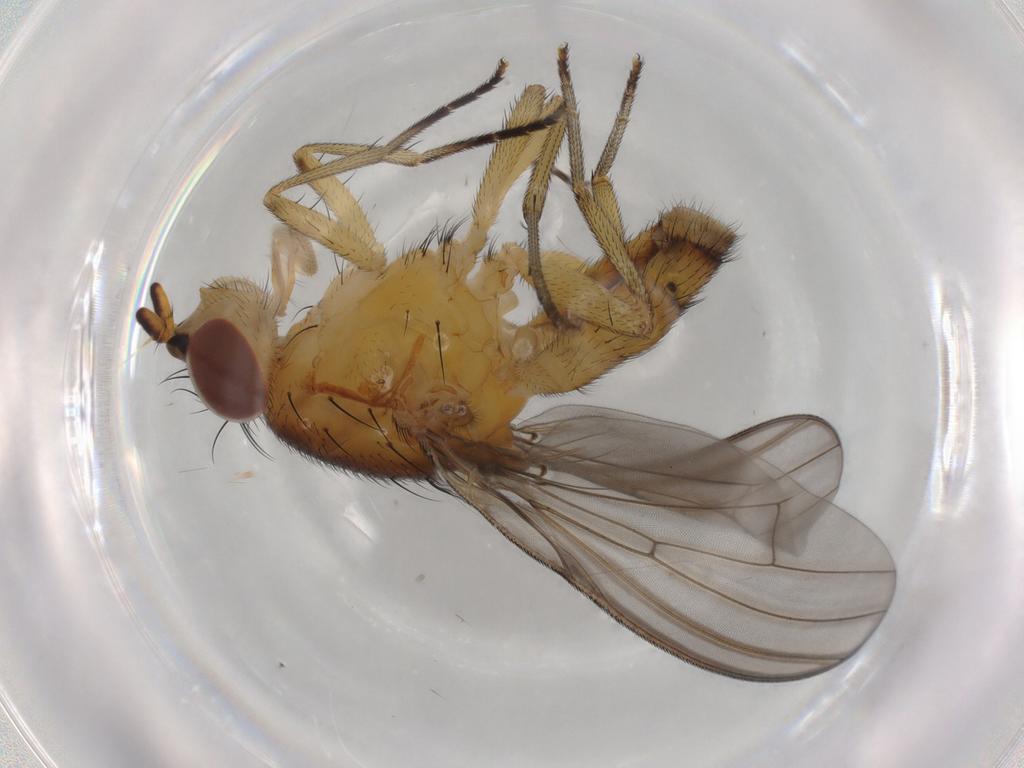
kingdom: Animalia
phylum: Arthropoda
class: Insecta
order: Diptera
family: Lauxaniidae
